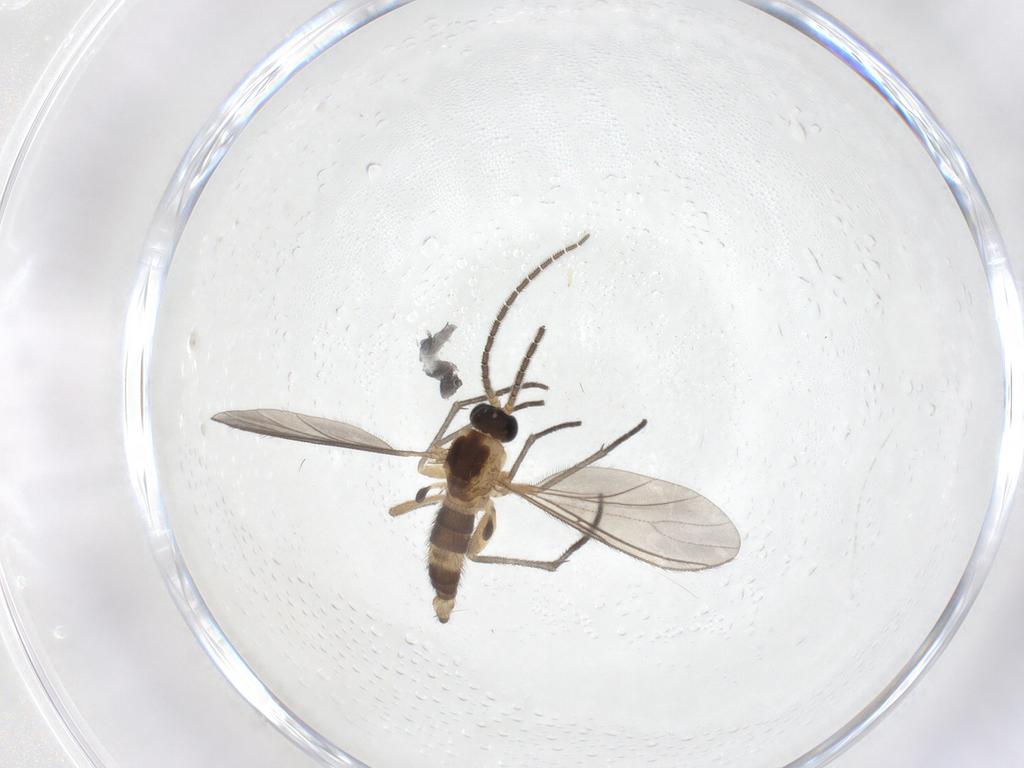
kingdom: Animalia
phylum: Arthropoda
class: Insecta
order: Diptera
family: Sciaridae
